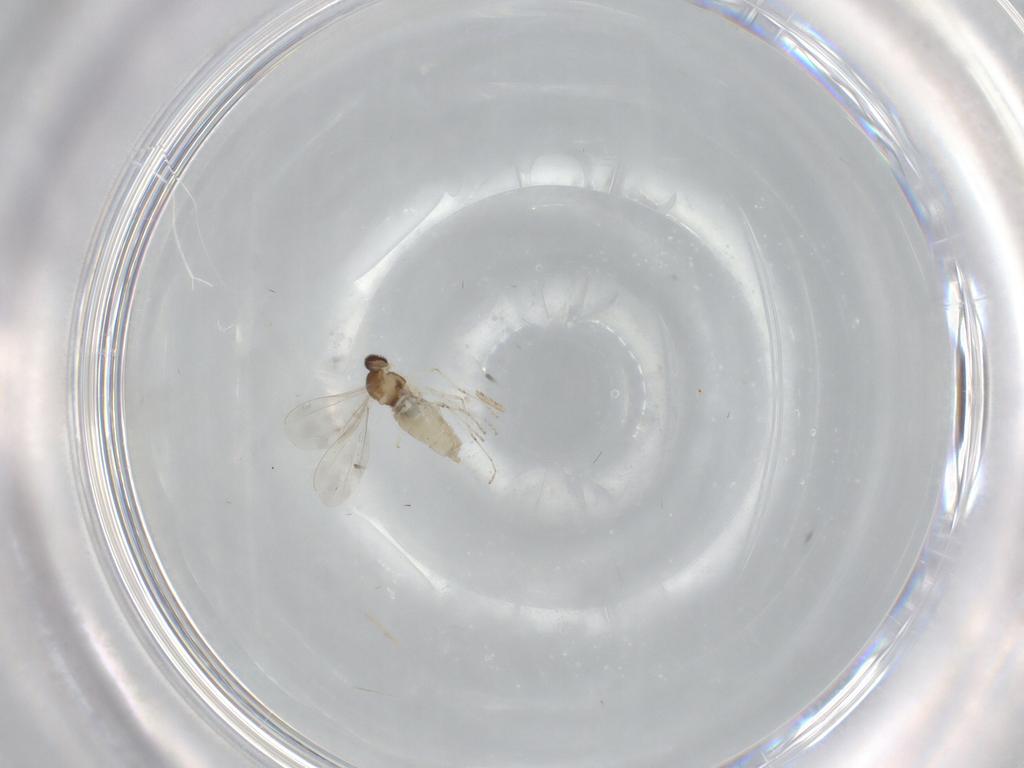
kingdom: Animalia
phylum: Arthropoda
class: Insecta
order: Diptera
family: Cecidomyiidae
